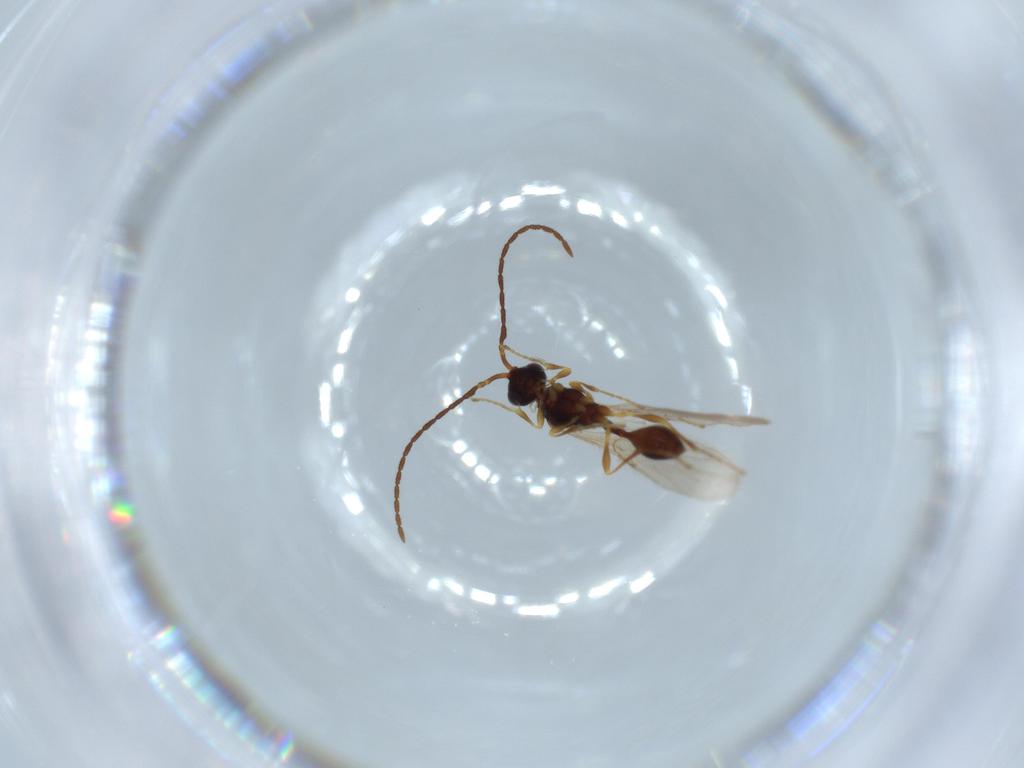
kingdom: Animalia
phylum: Arthropoda
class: Insecta
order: Hymenoptera
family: Diapriidae
